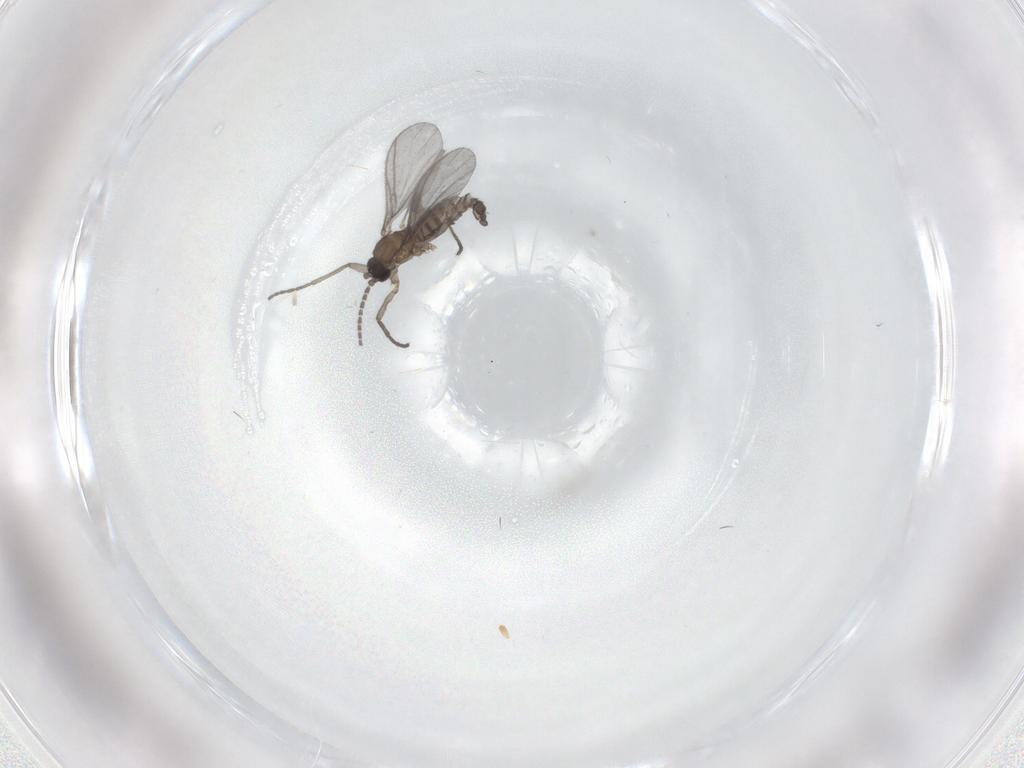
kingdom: Animalia
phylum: Arthropoda
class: Insecta
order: Diptera
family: Sciaridae
